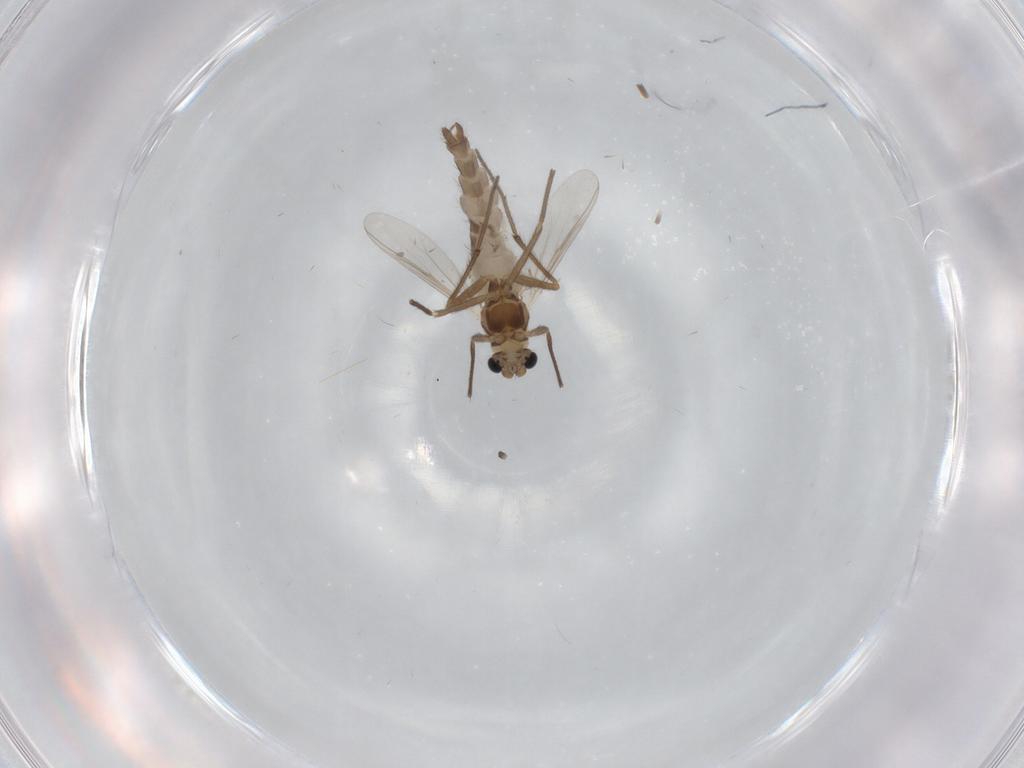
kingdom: Animalia
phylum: Arthropoda
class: Insecta
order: Diptera
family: Chironomidae
